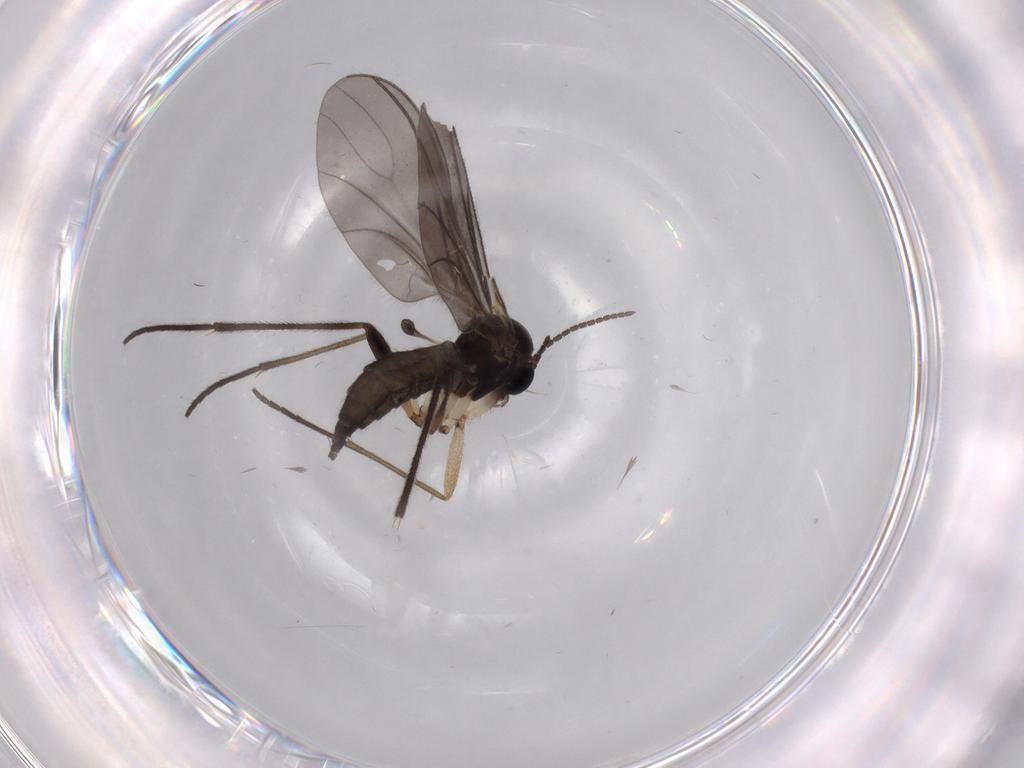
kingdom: Animalia
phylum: Arthropoda
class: Insecta
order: Diptera
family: Sciaridae
